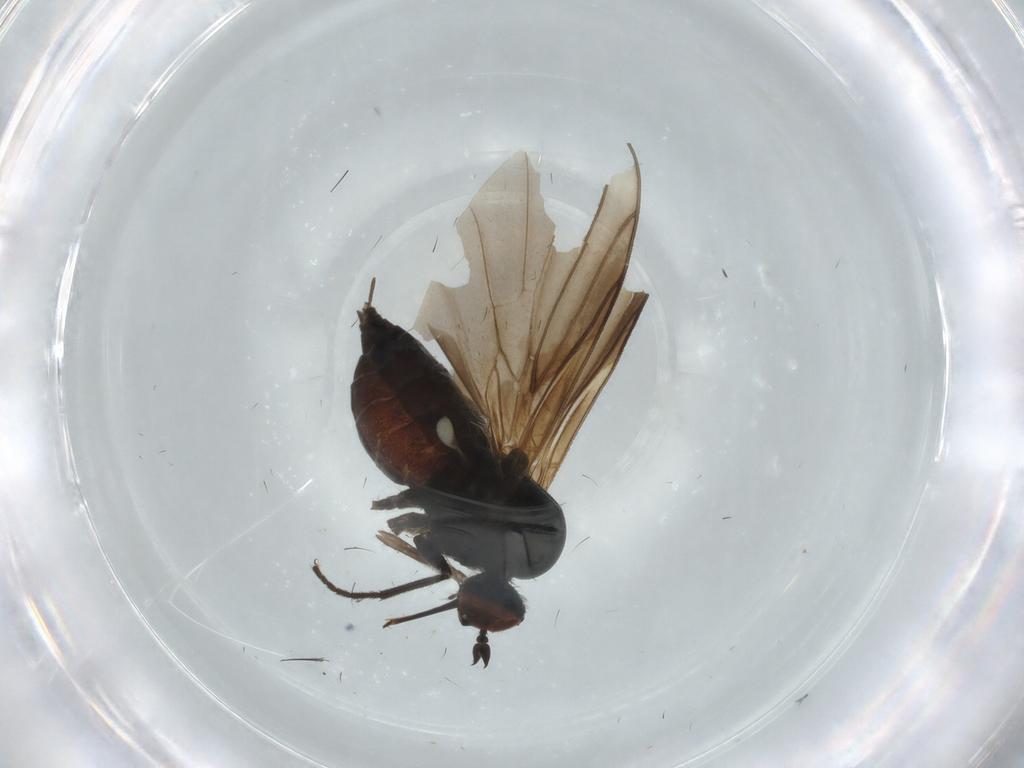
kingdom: Animalia
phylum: Arthropoda
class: Insecta
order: Diptera
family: Empididae
